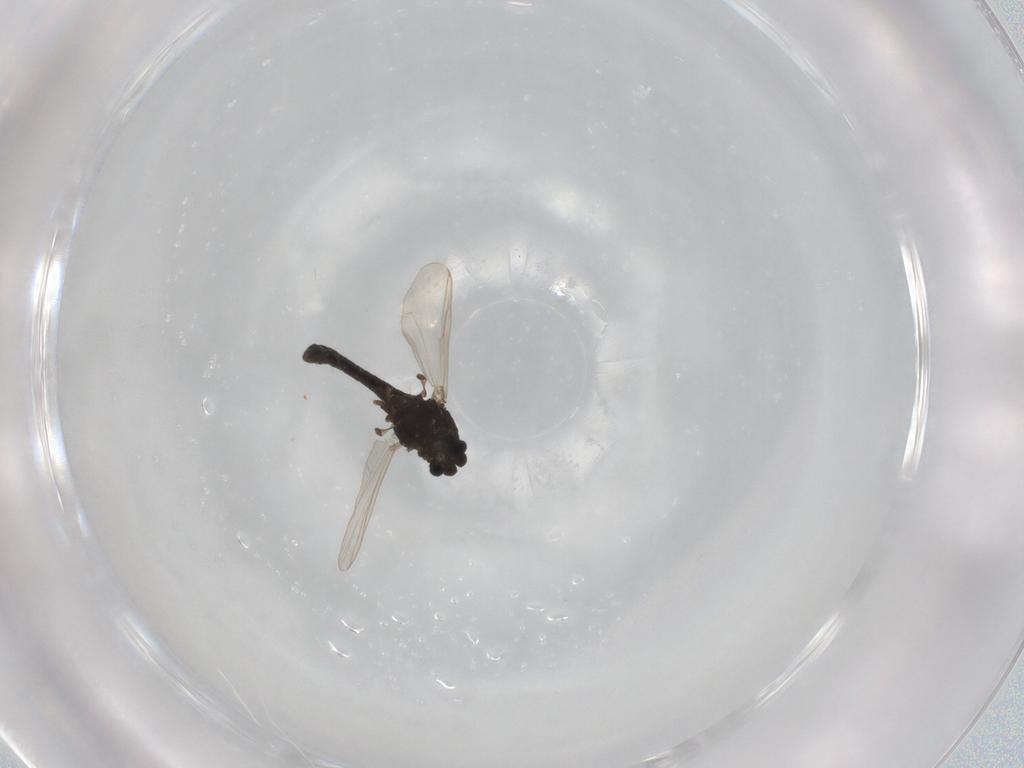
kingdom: Animalia
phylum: Arthropoda
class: Insecta
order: Diptera
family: Chironomidae
